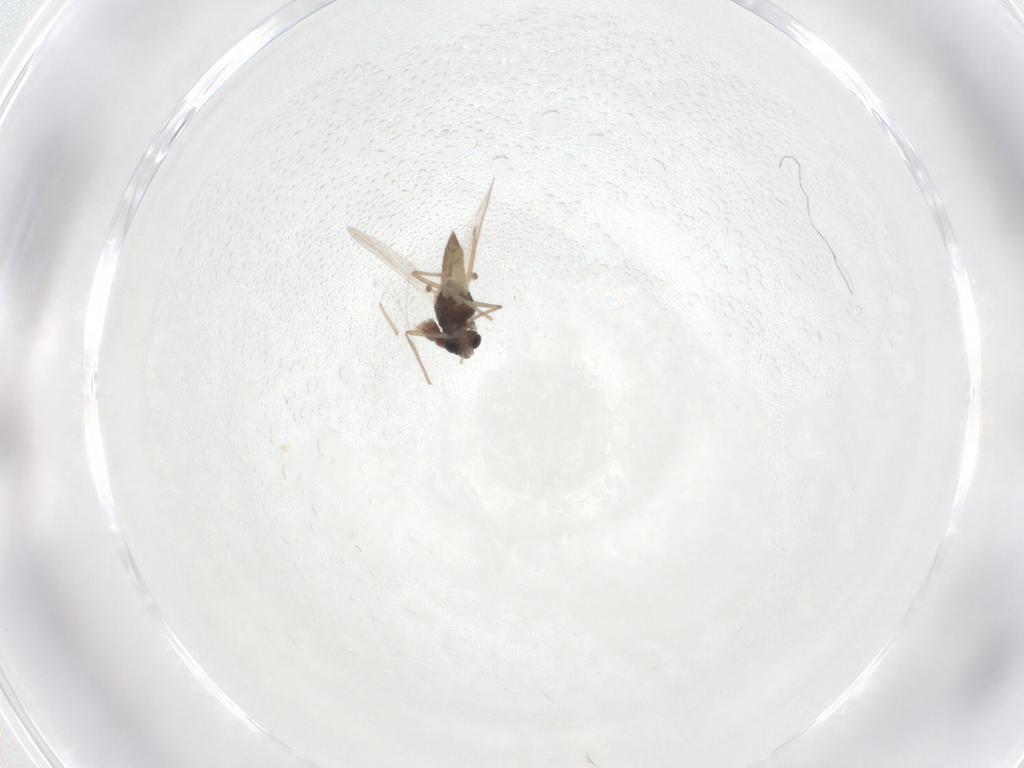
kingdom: Animalia
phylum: Arthropoda
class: Insecta
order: Diptera
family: Chironomidae
